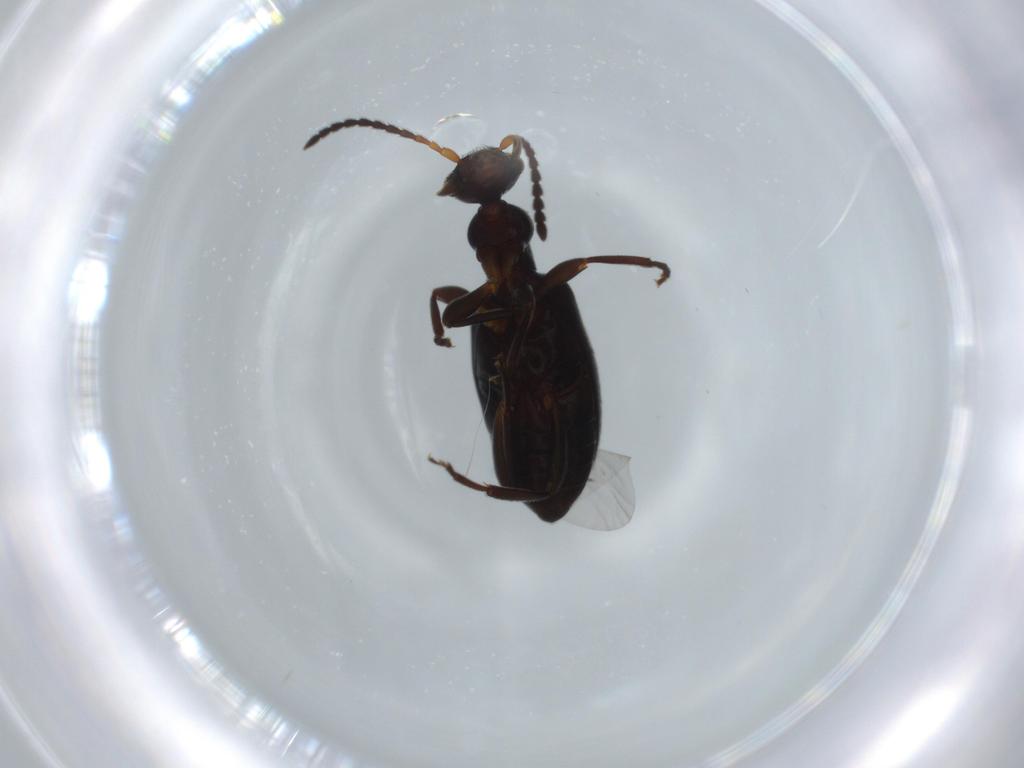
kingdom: Animalia
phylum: Arthropoda
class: Insecta
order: Coleoptera
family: Anthicidae
